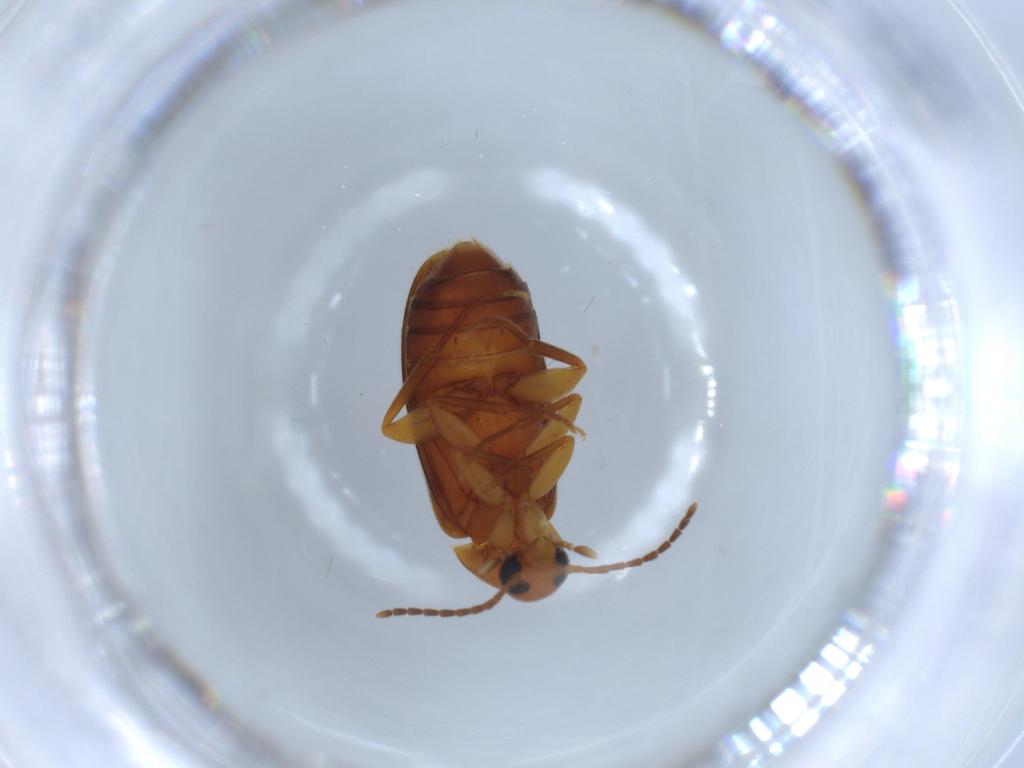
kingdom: Animalia
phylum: Arthropoda
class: Insecta
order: Coleoptera
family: Scraptiidae
